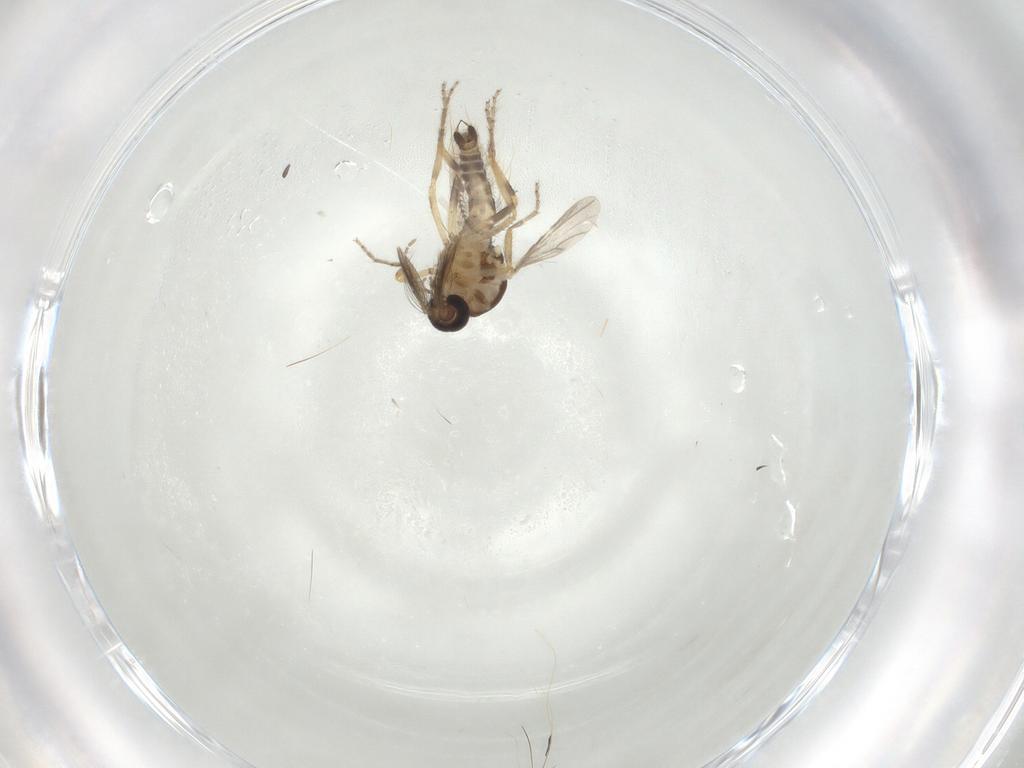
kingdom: Animalia
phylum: Arthropoda
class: Insecta
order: Diptera
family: Ceratopogonidae
